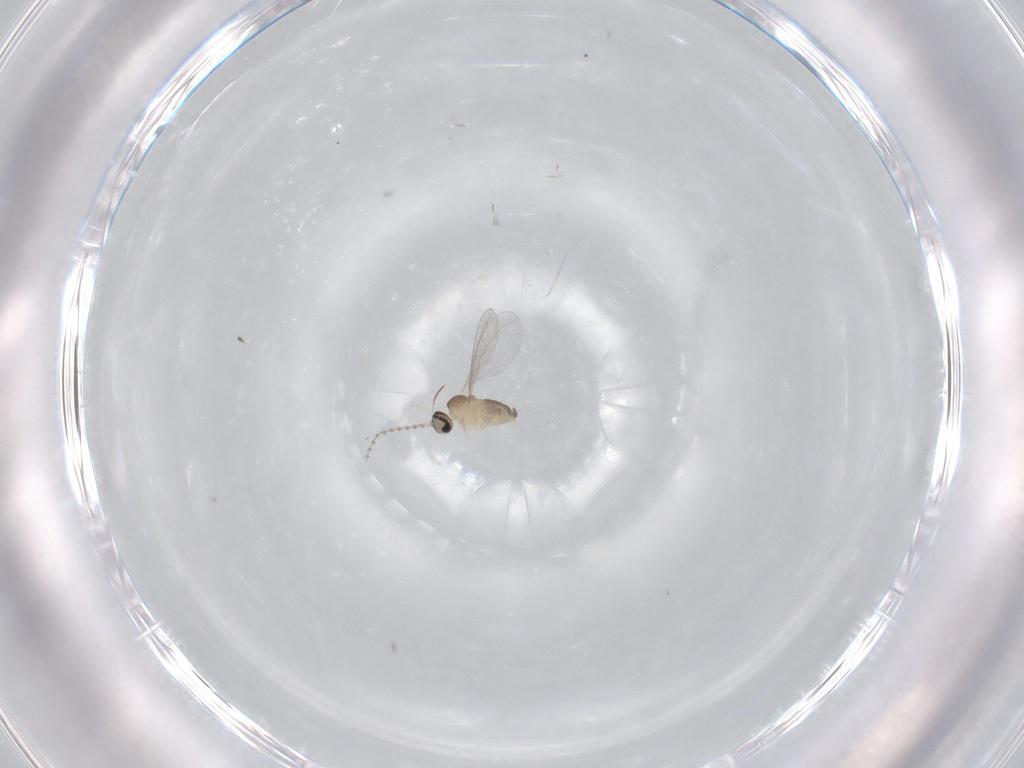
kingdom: Animalia
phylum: Arthropoda
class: Insecta
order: Diptera
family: Cecidomyiidae
